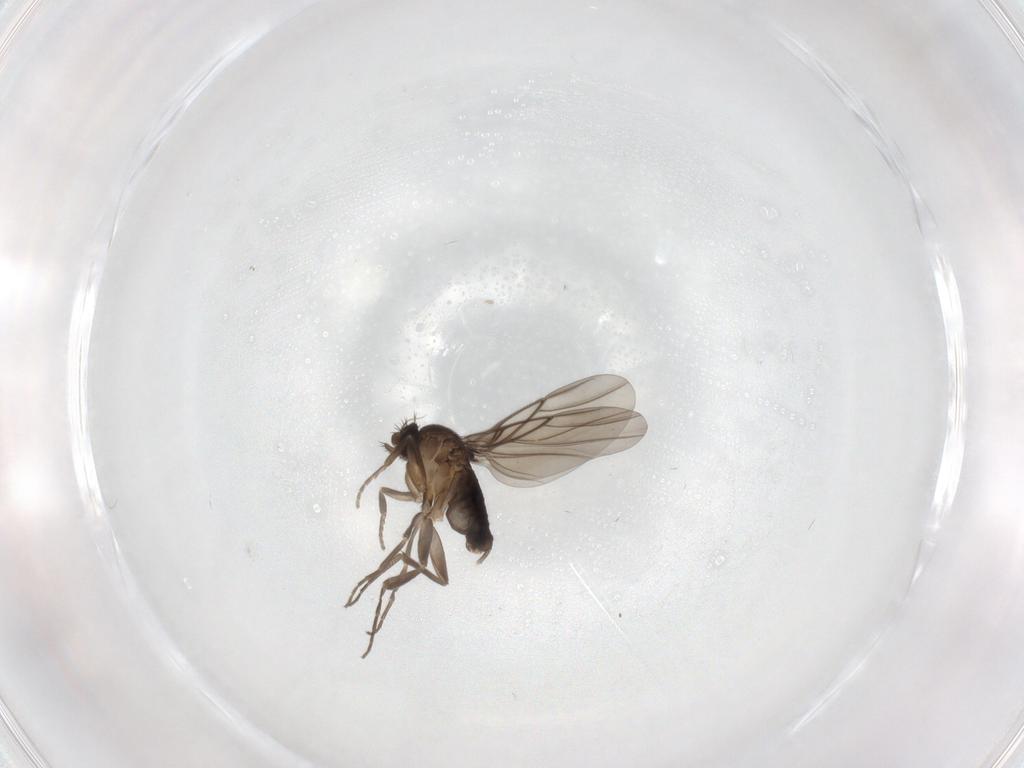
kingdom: Animalia
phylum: Arthropoda
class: Insecta
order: Diptera
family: Phoridae
